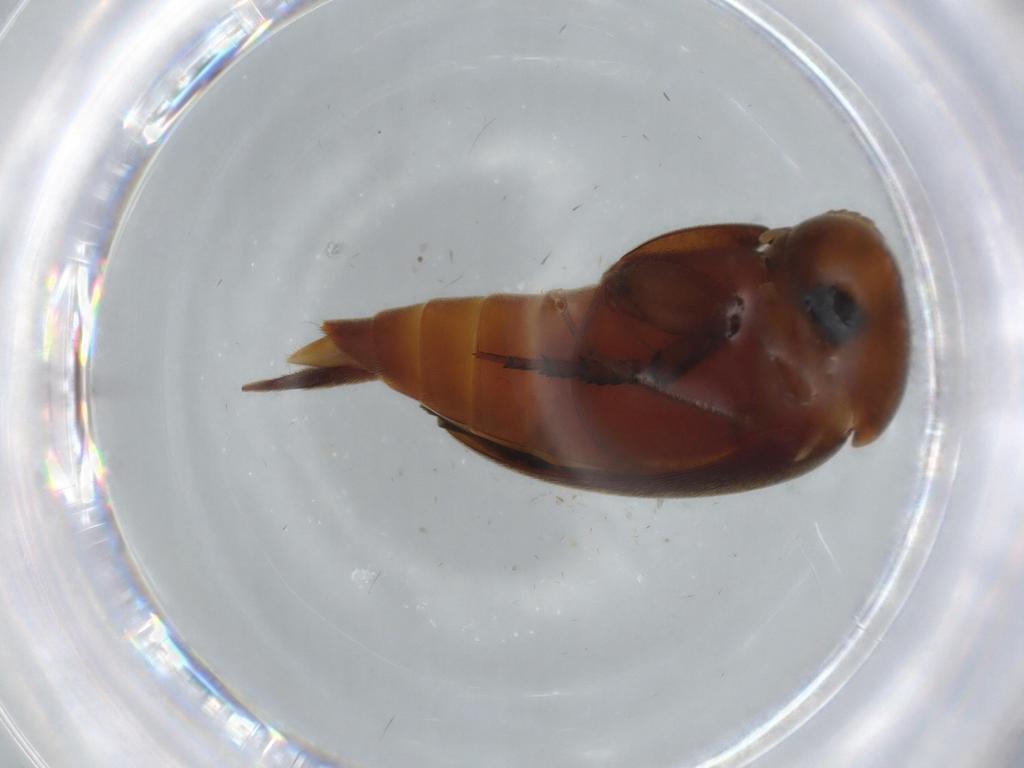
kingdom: Animalia
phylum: Arthropoda
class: Insecta
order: Coleoptera
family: Mordellidae
